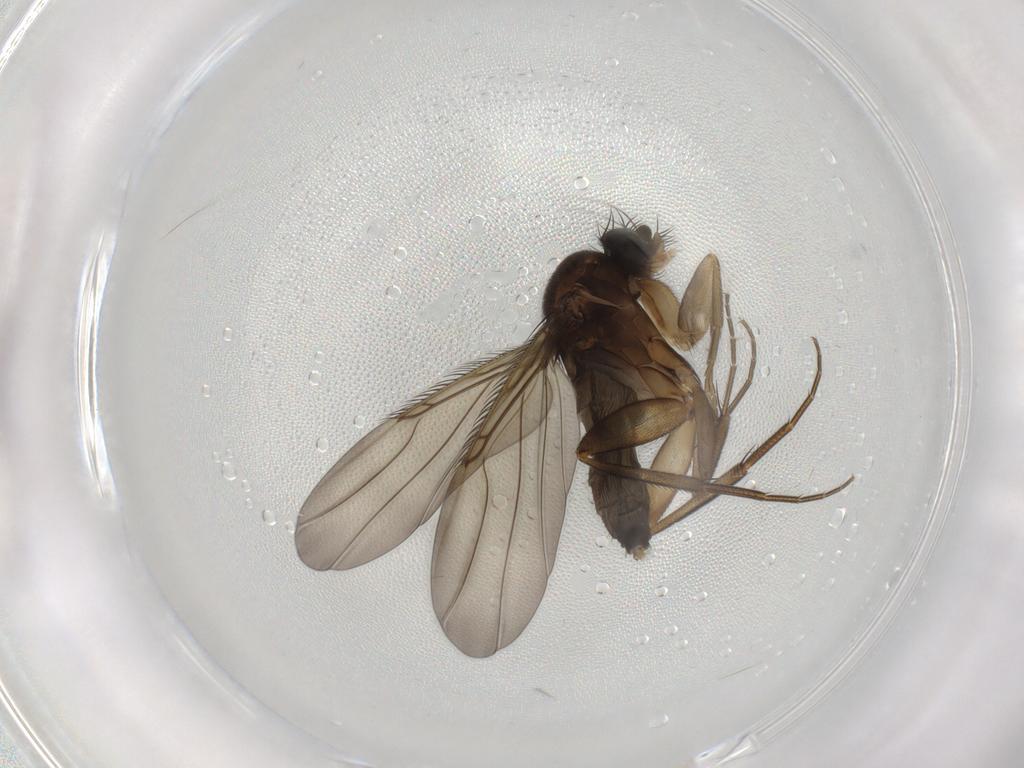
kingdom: Animalia
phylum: Arthropoda
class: Insecta
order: Diptera
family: Phoridae
